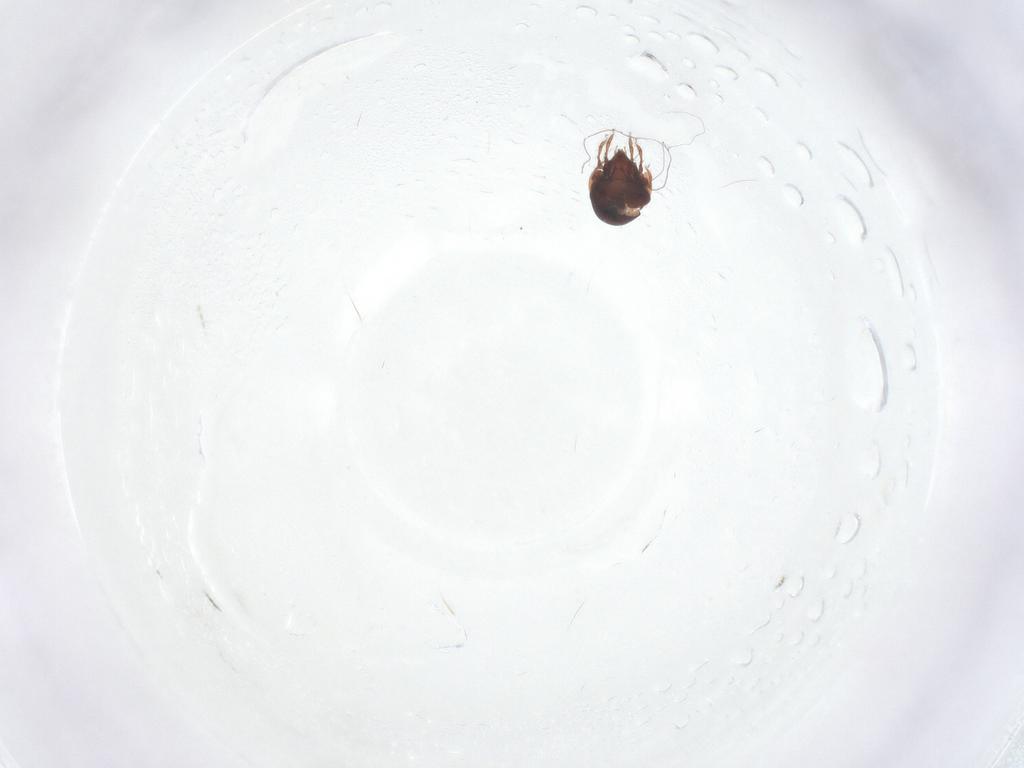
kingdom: Animalia
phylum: Arthropoda
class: Arachnida
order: Sarcoptiformes
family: Ceratozetidae
